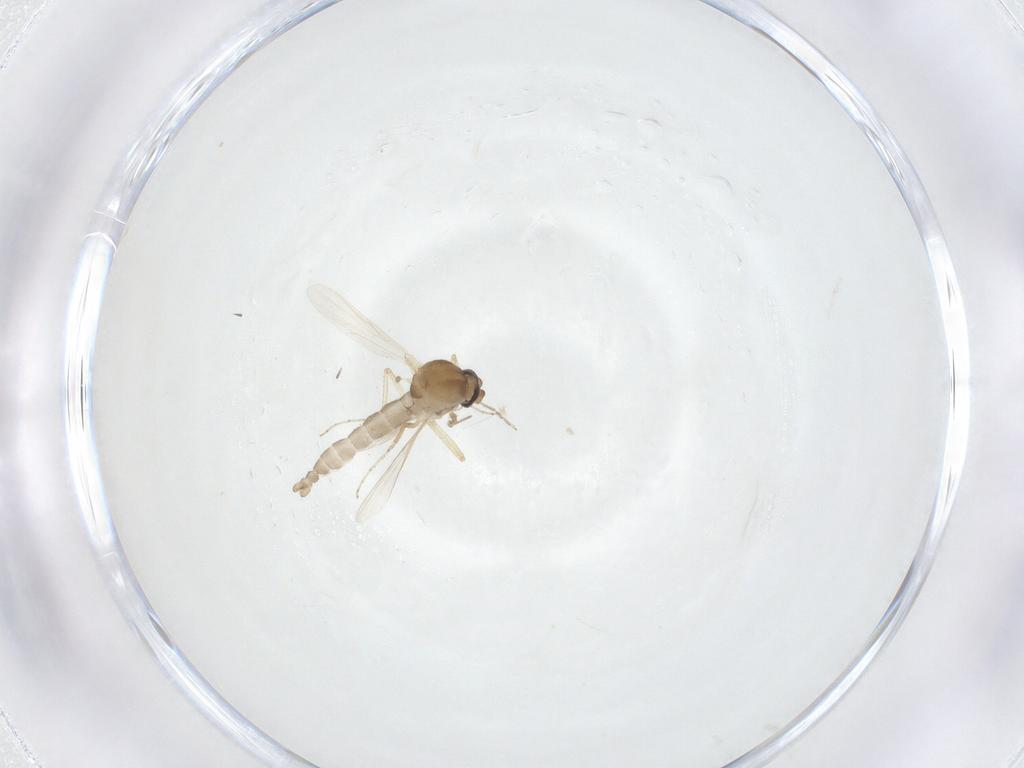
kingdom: Animalia
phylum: Arthropoda
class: Insecta
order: Diptera
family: Ceratopogonidae
